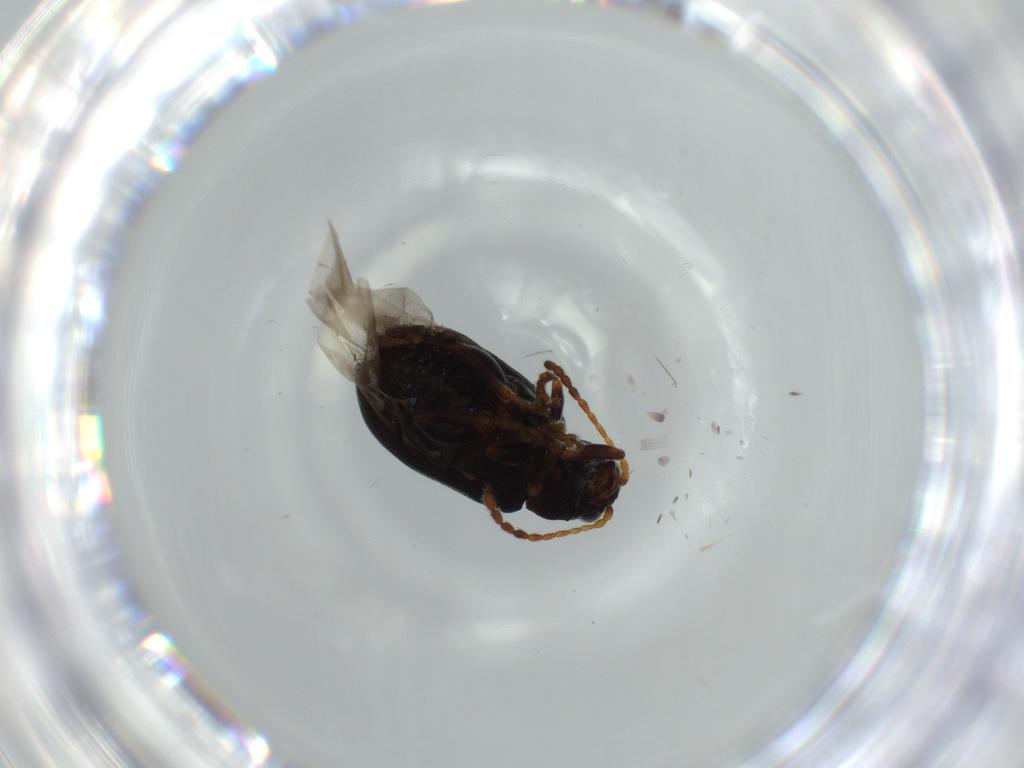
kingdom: Animalia
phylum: Arthropoda
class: Insecta
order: Coleoptera
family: Chrysomelidae
